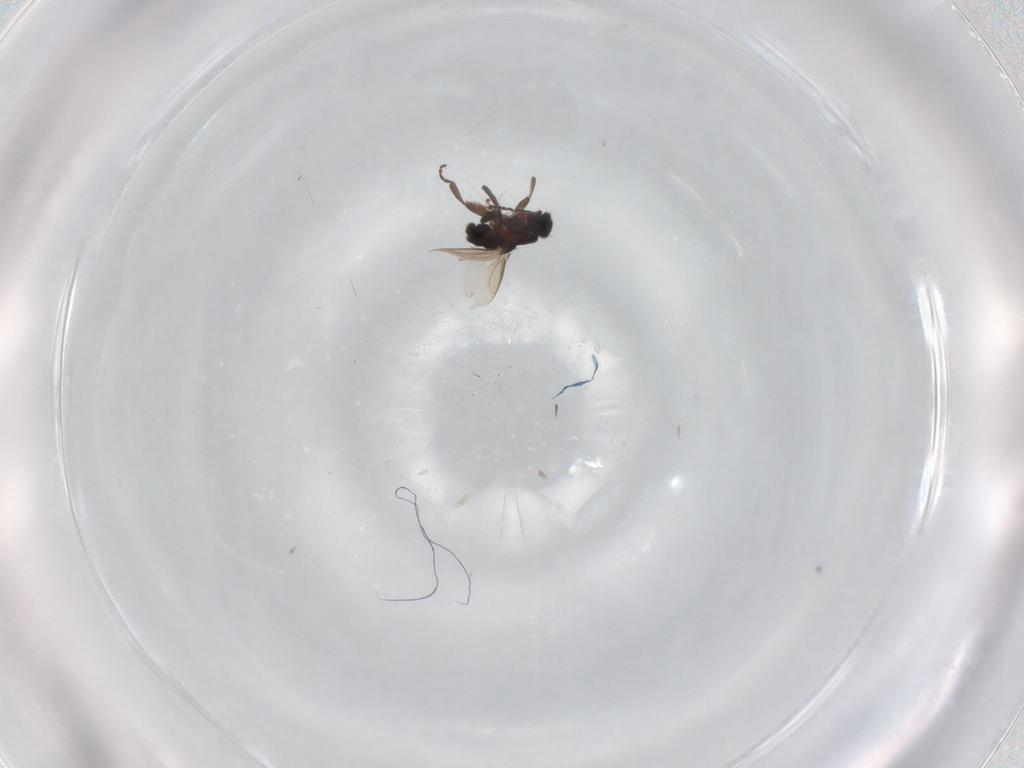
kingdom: Animalia
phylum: Arthropoda
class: Insecta
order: Diptera
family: Sphaeroceridae
